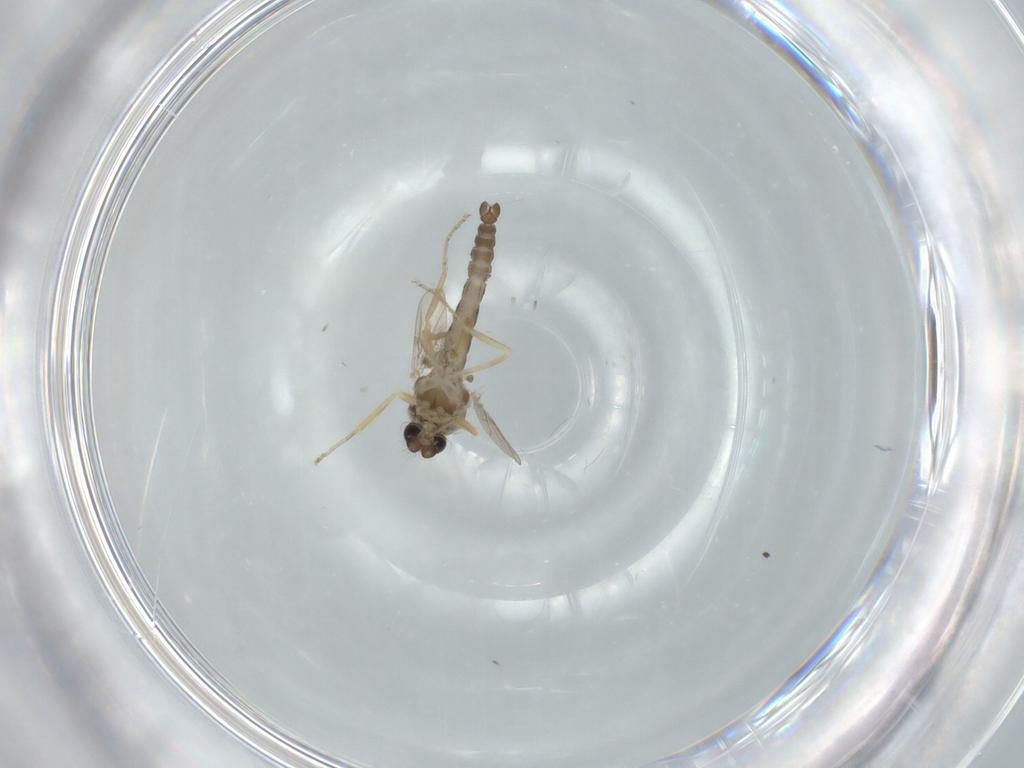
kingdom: Animalia
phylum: Arthropoda
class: Insecta
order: Diptera
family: Ceratopogonidae
